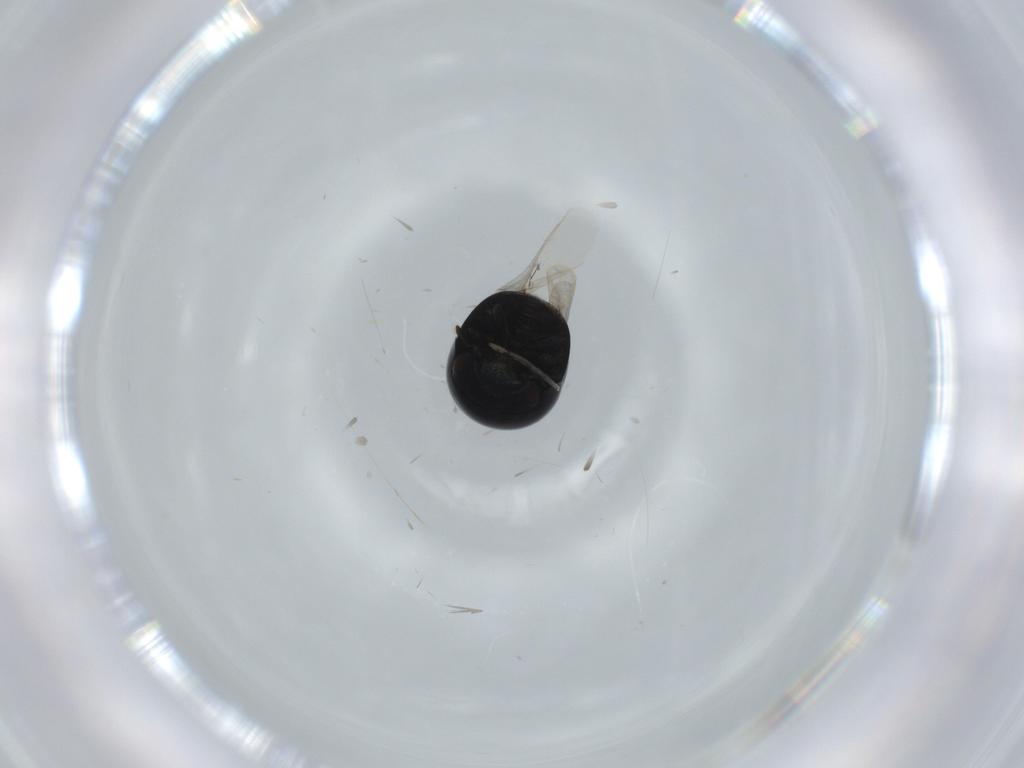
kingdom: Animalia
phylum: Arthropoda
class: Insecta
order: Coleoptera
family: Cybocephalidae
